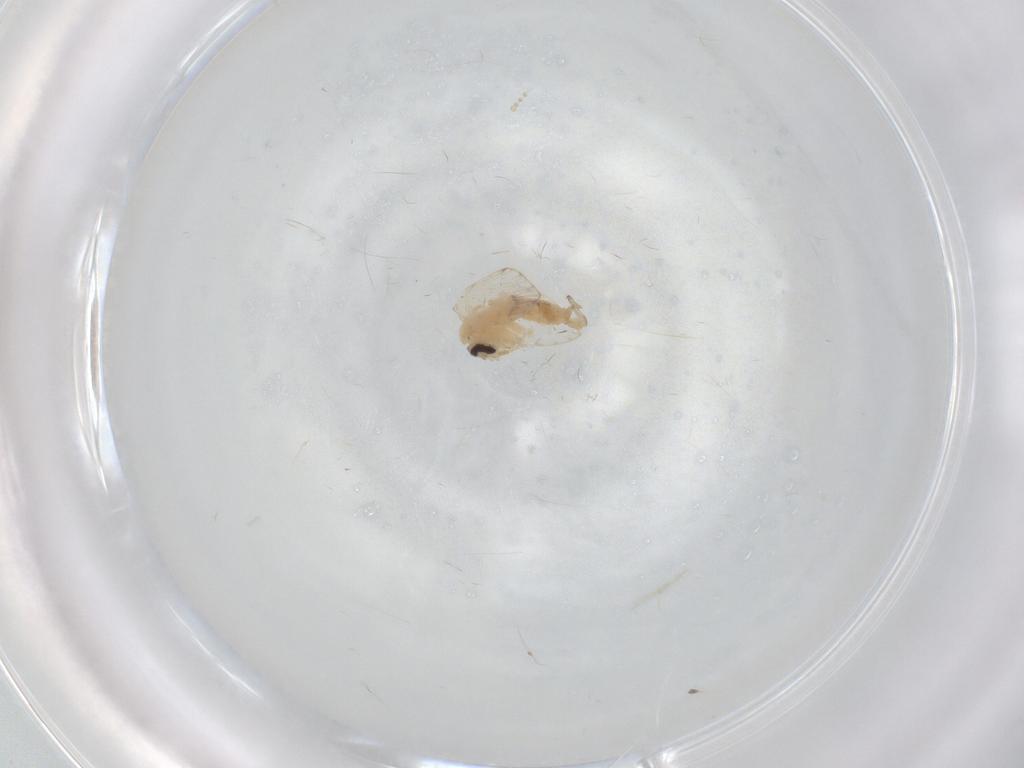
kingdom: Animalia
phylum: Arthropoda
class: Insecta
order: Diptera
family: Psychodidae
